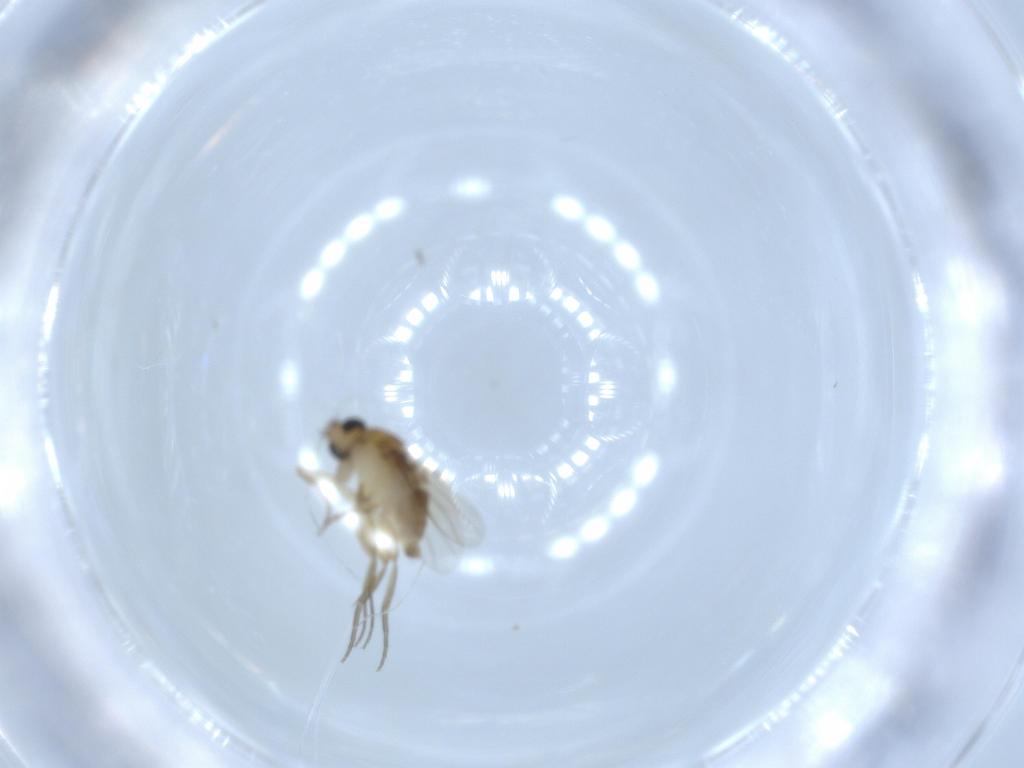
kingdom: Animalia
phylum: Arthropoda
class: Insecta
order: Diptera
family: Phoridae
